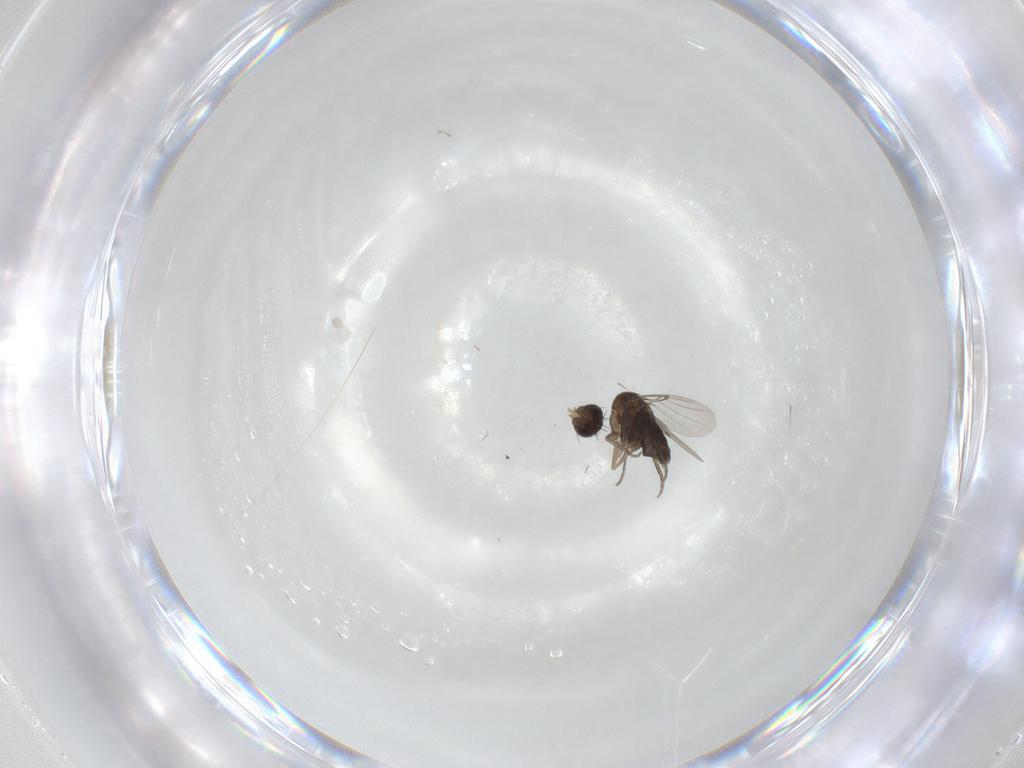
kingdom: Animalia
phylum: Arthropoda
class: Insecta
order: Diptera
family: Phoridae
